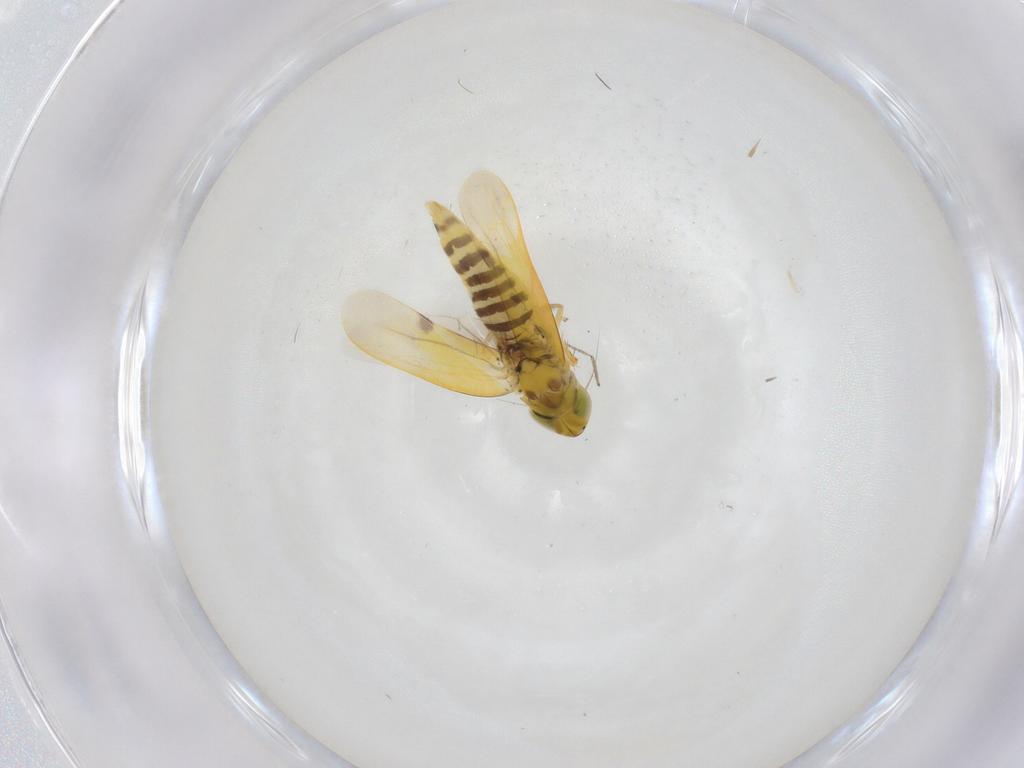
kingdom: Animalia
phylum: Arthropoda
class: Insecta
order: Hemiptera
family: Cicadellidae
